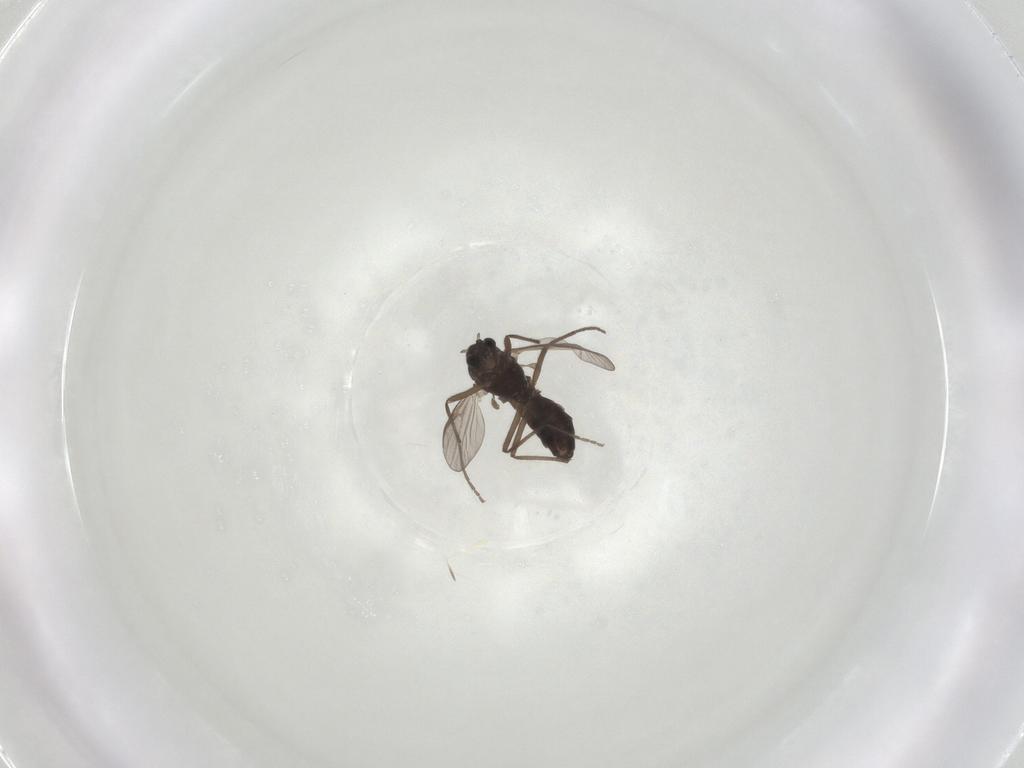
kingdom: Animalia
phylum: Arthropoda
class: Insecta
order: Diptera
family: Chironomidae
